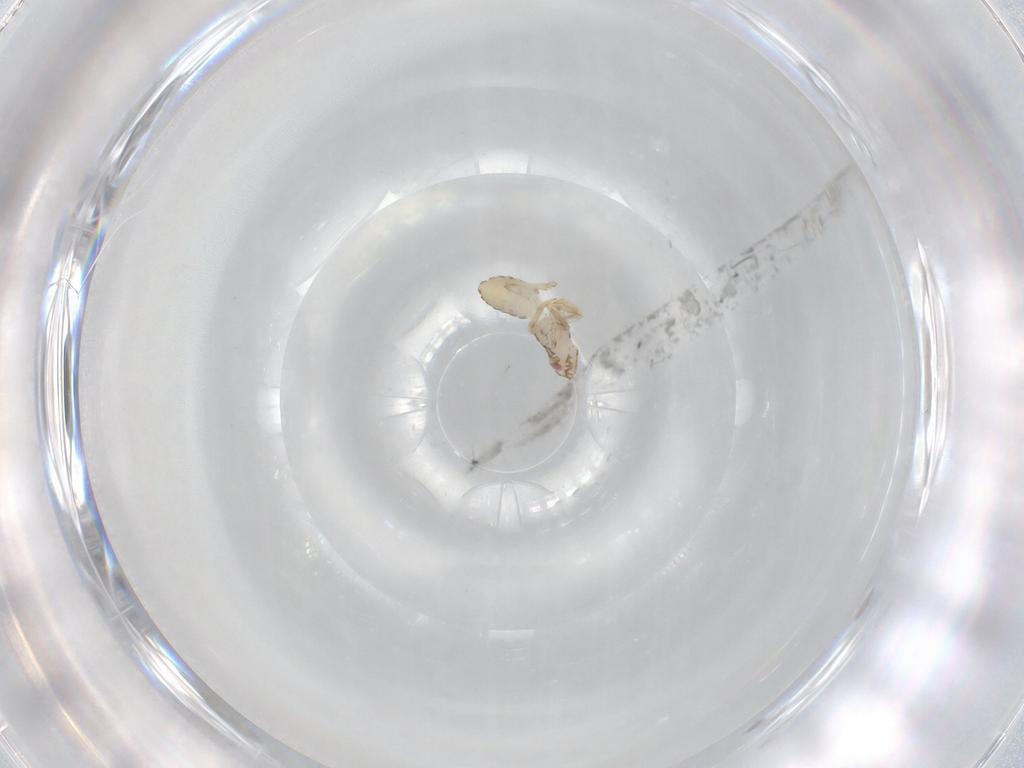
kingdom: Animalia
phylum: Arthropoda
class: Insecta
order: Hemiptera
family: Delphacidae
